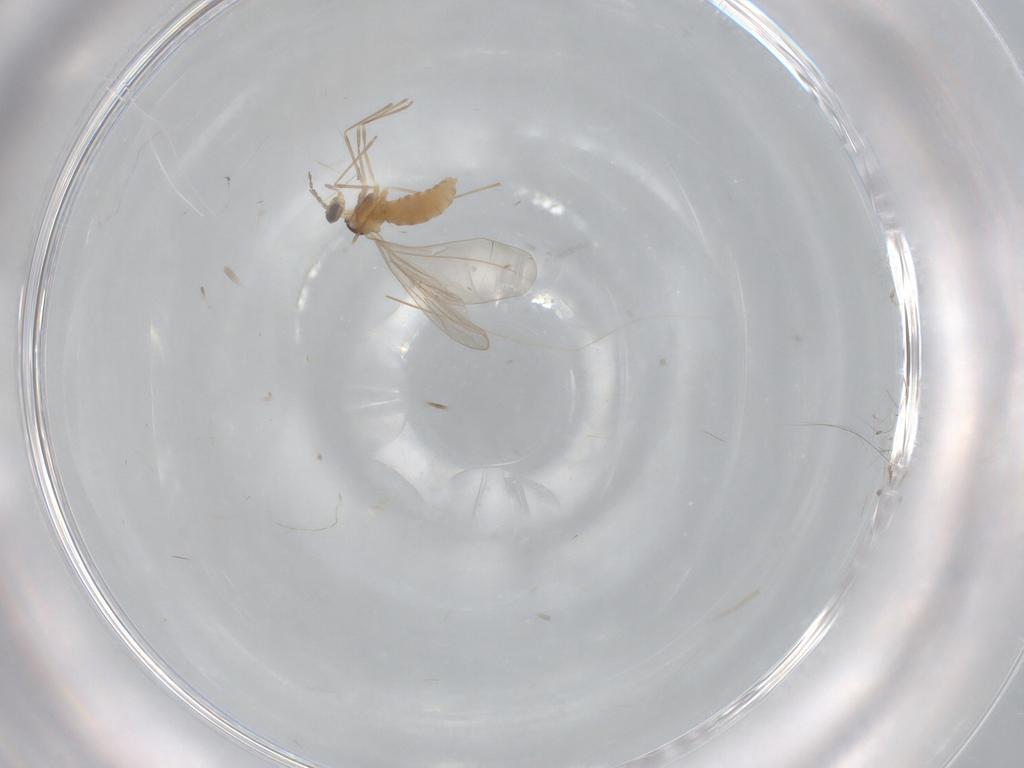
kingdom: Animalia
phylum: Arthropoda
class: Insecta
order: Diptera
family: Cecidomyiidae
